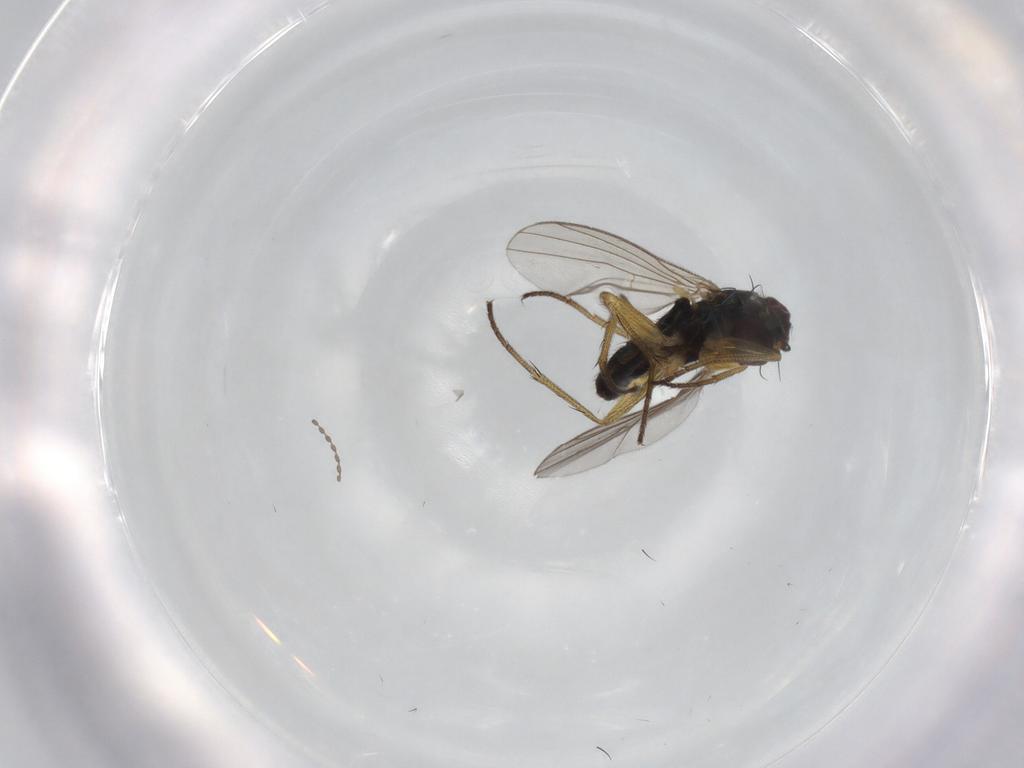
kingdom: Animalia
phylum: Arthropoda
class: Insecta
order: Diptera
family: Cecidomyiidae
